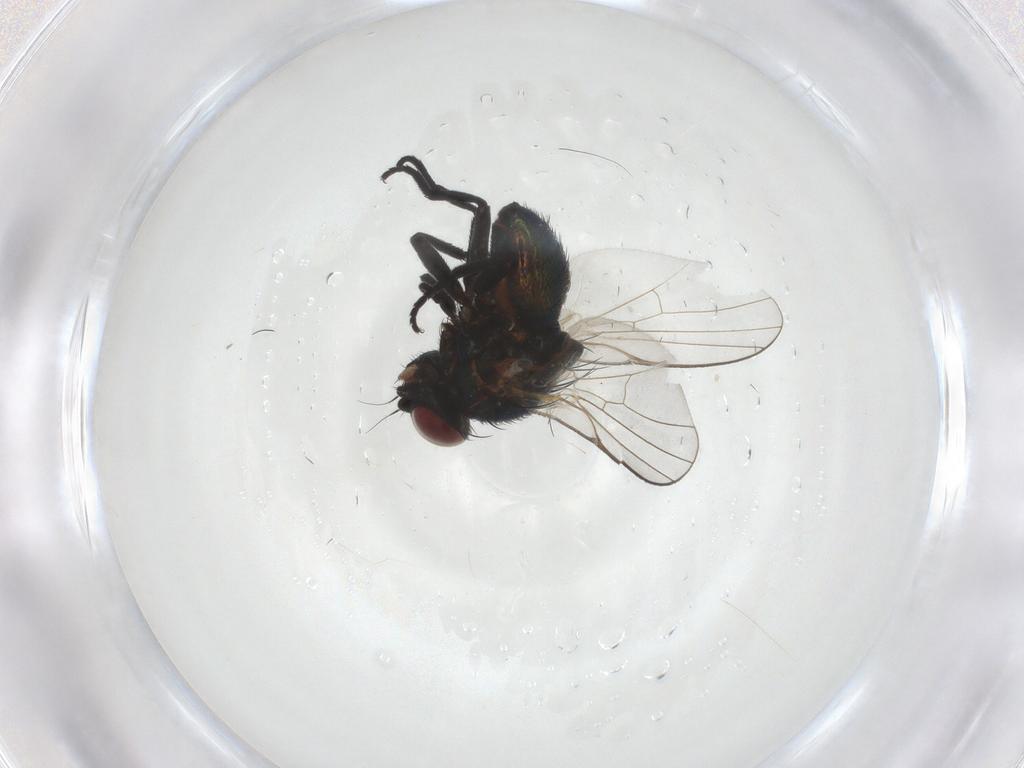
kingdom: Animalia
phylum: Arthropoda
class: Insecta
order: Diptera
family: Agromyzidae
